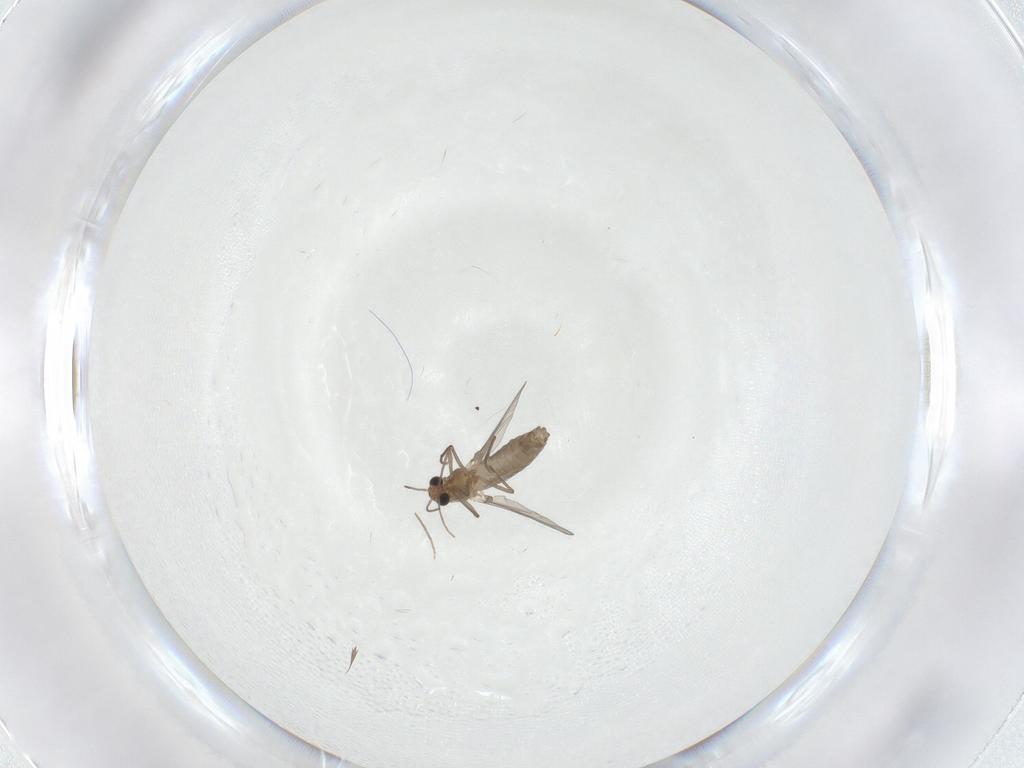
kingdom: Animalia
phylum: Arthropoda
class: Insecta
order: Diptera
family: Chironomidae
